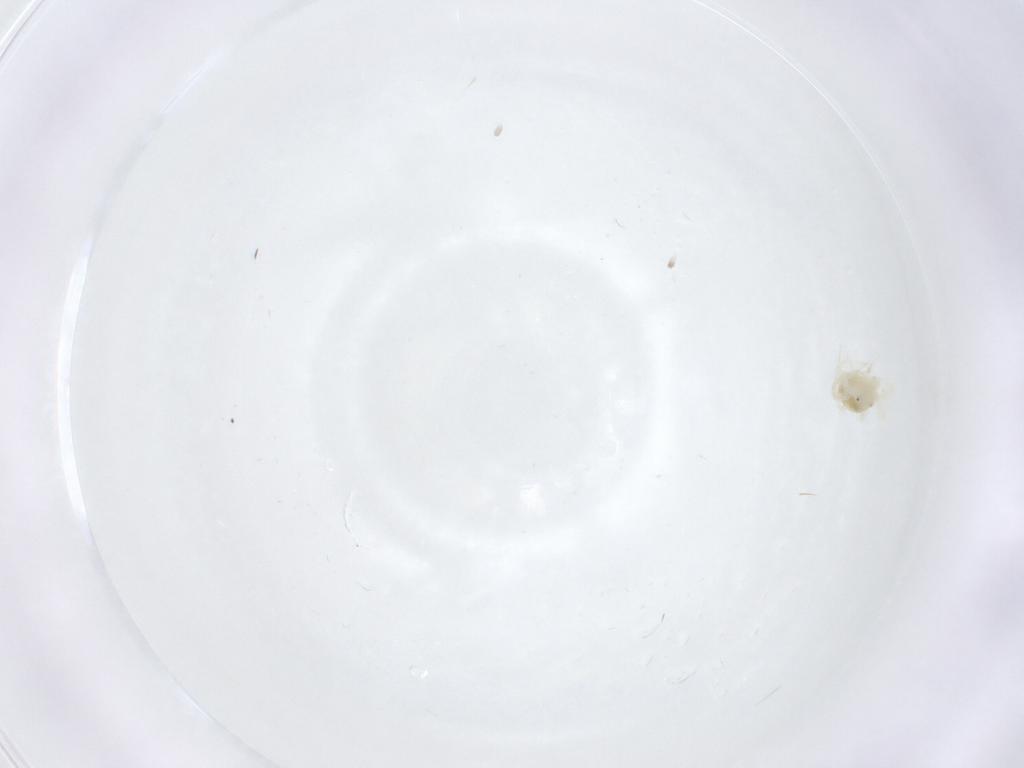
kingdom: Animalia
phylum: Arthropoda
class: Arachnida
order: Trombidiformes
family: Anystidae
